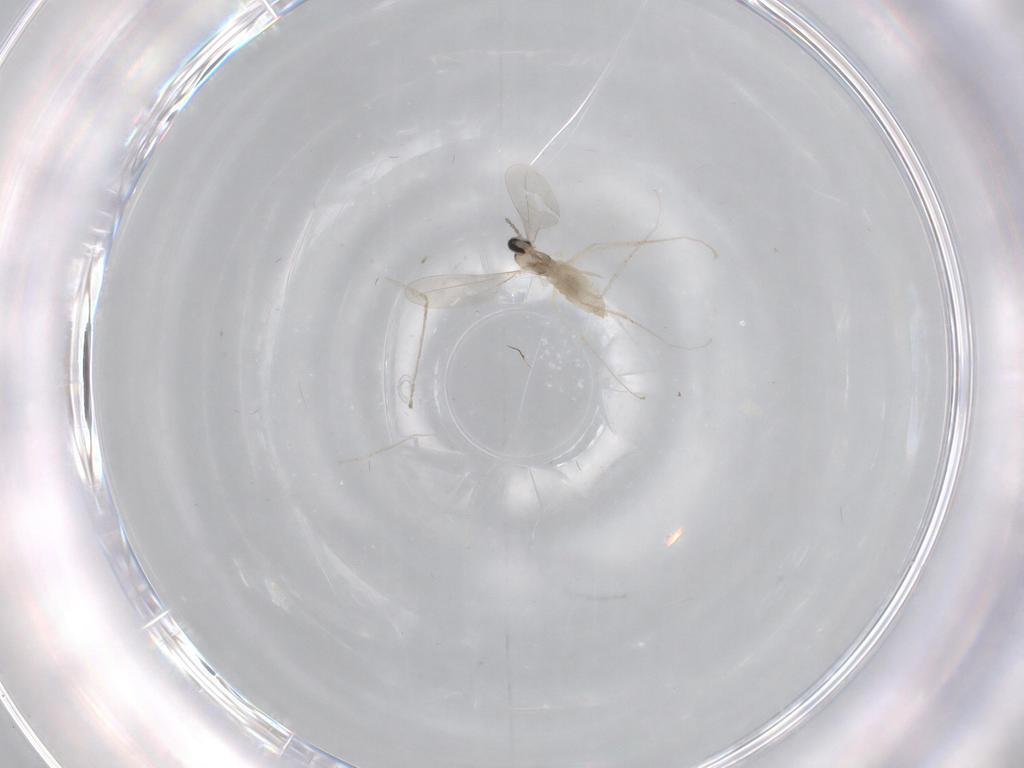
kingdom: Animalia
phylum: Arthropoda
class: Insecta
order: Diptera
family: Cecidomyiidae
